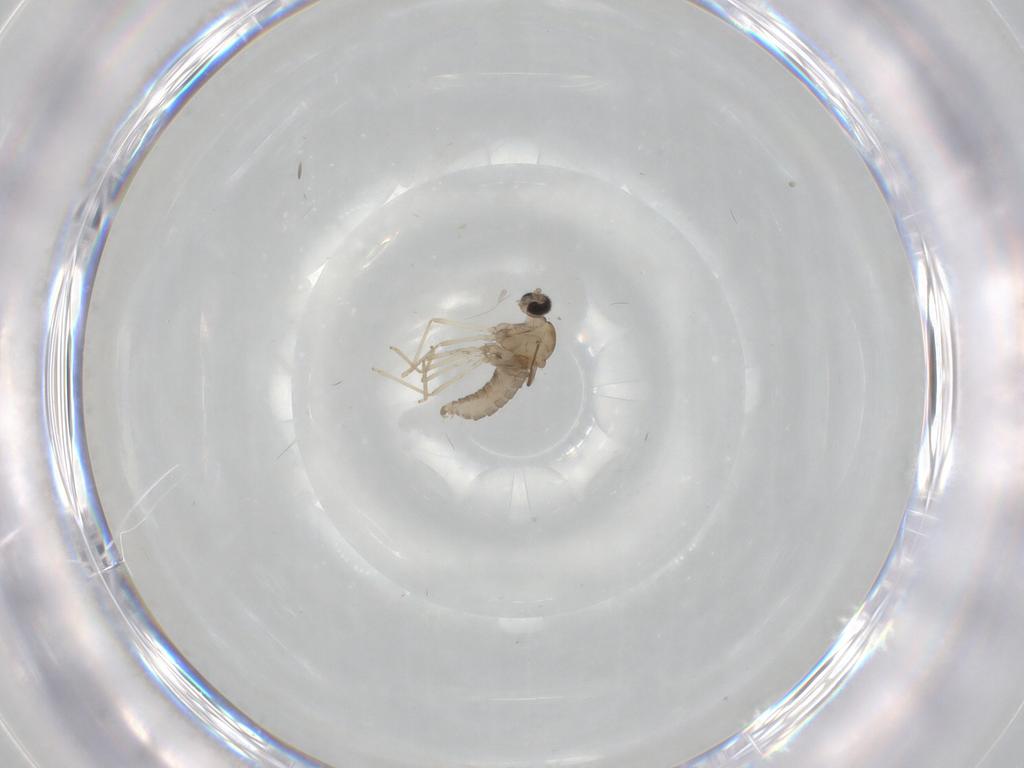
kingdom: Animalia
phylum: Arthropoda
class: Insecta
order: Diptera
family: Cecidomyiidae
